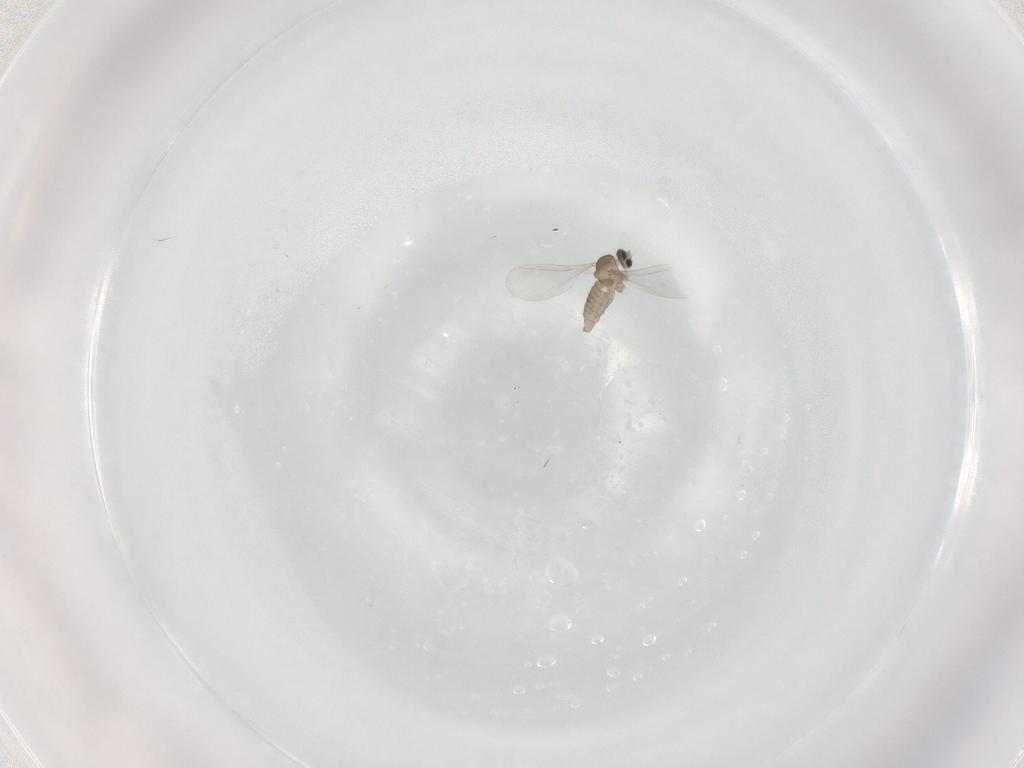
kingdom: Animalia
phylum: Arthropoda
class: Insecta
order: Diptera
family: Cecidomyiidae
